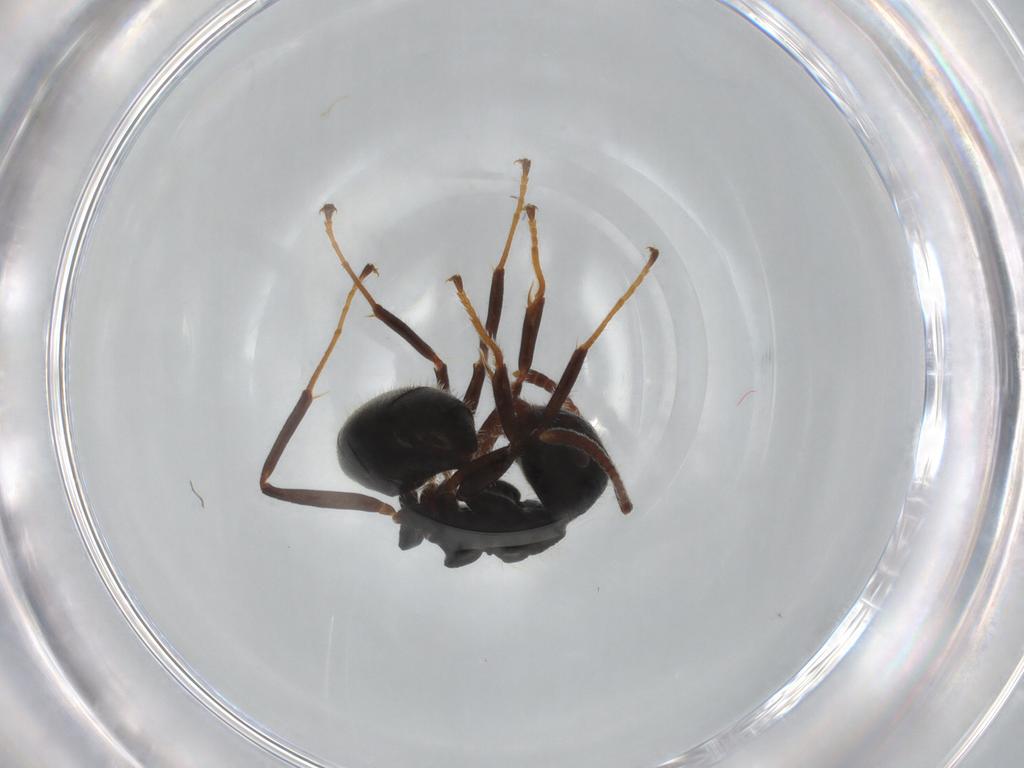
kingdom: Animalia
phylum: Arthropoda
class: Insecta
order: Hymenoptera
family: Formicidae
